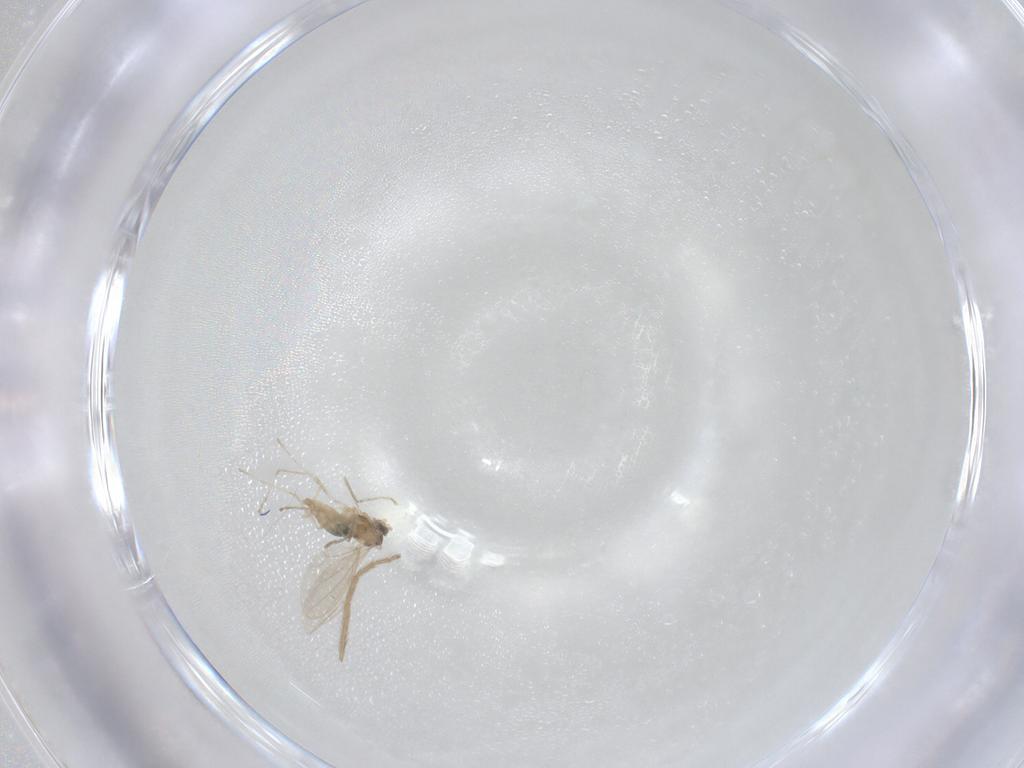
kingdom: Animalia
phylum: Arthropoda
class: Insecta
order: Diptera
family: Chironomidae
